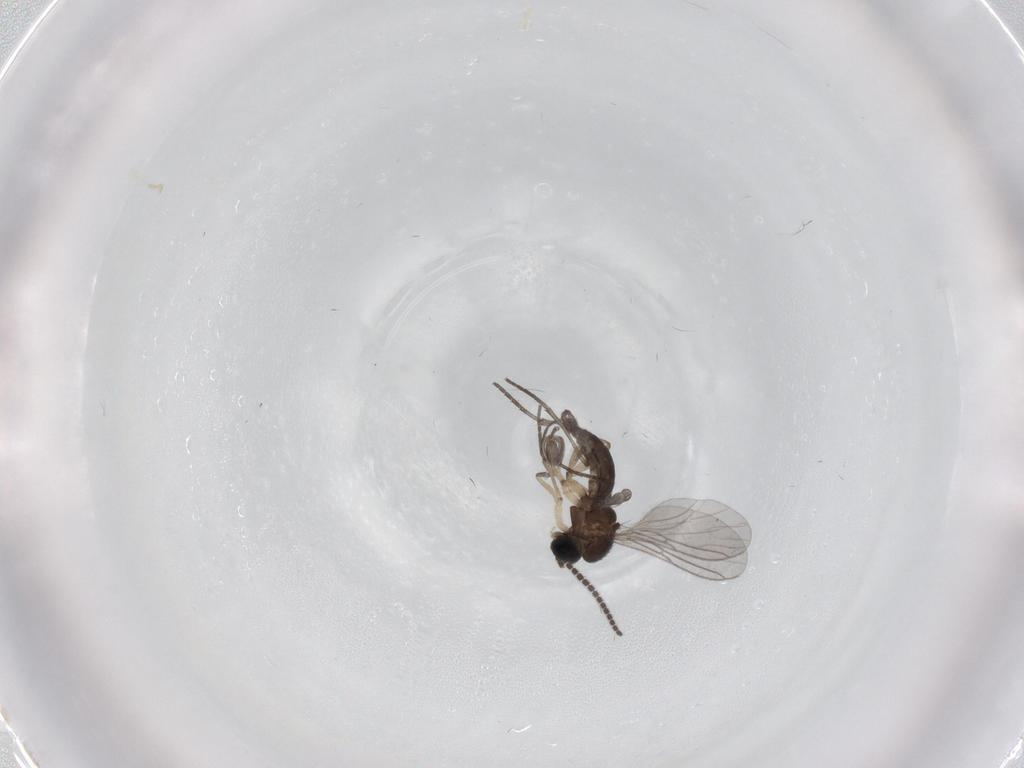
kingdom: Animalia
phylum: Arthropoda
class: Insecta
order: Diptera
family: Sciaridae
